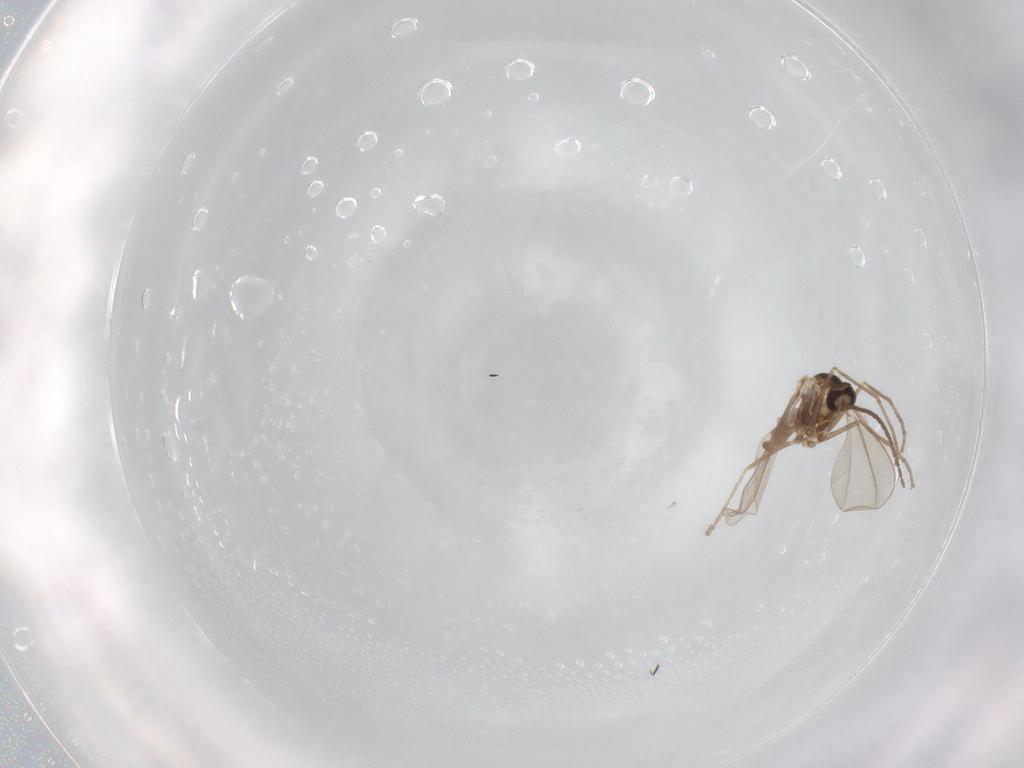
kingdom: Animalia
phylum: Arthropoda
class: Insecta
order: Diptera
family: Cecidomyiidae
